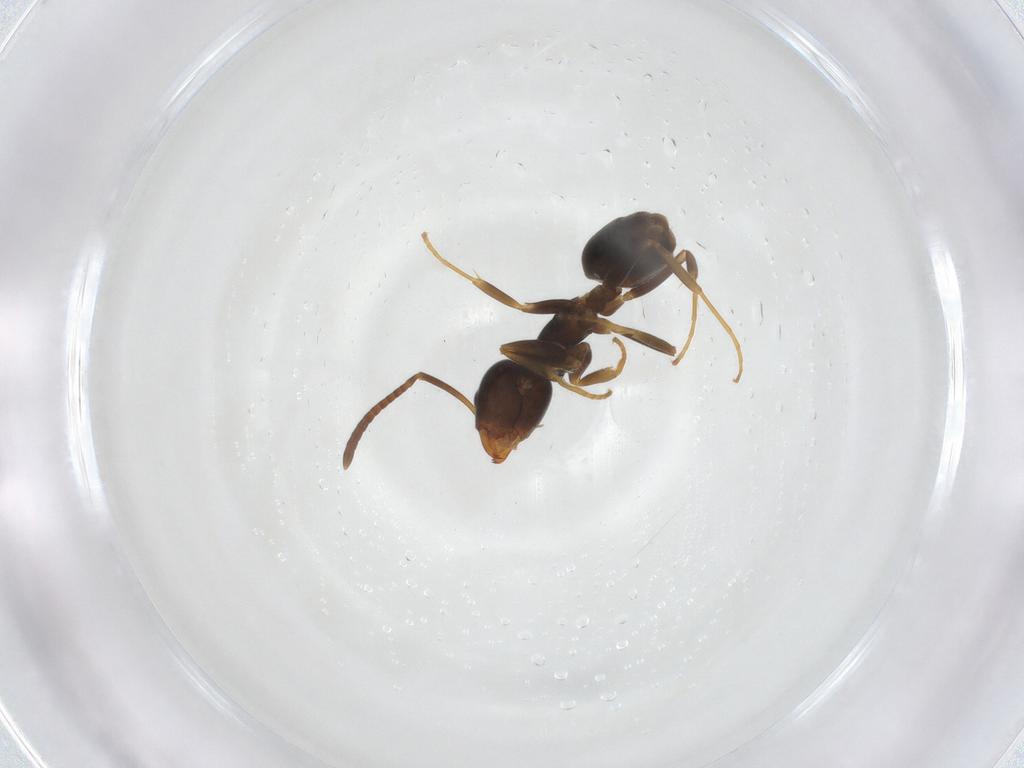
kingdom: Animalia
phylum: Arthropoda
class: Insecta
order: Hymenoptera
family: Formicidae
